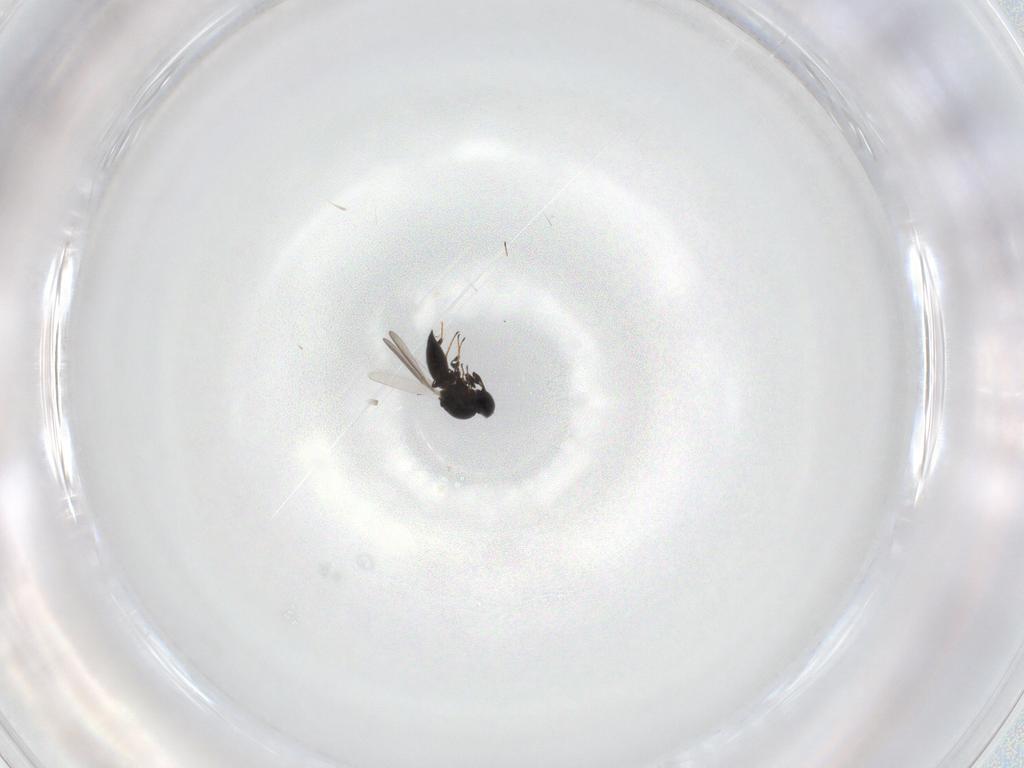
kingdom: Animalia
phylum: Arthropoda
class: Insecta
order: Hymenoptera
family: Platygastridae
